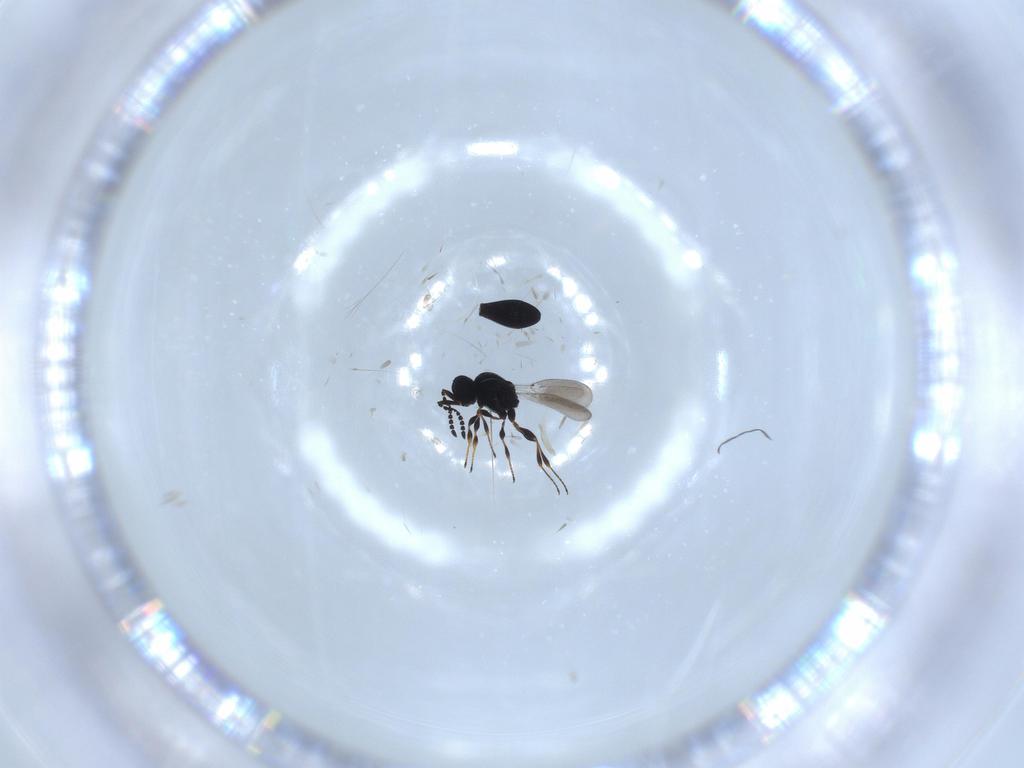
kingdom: Animalia
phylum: Arthropoda
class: Insecta
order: Hymenoptera
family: Platygastridae
